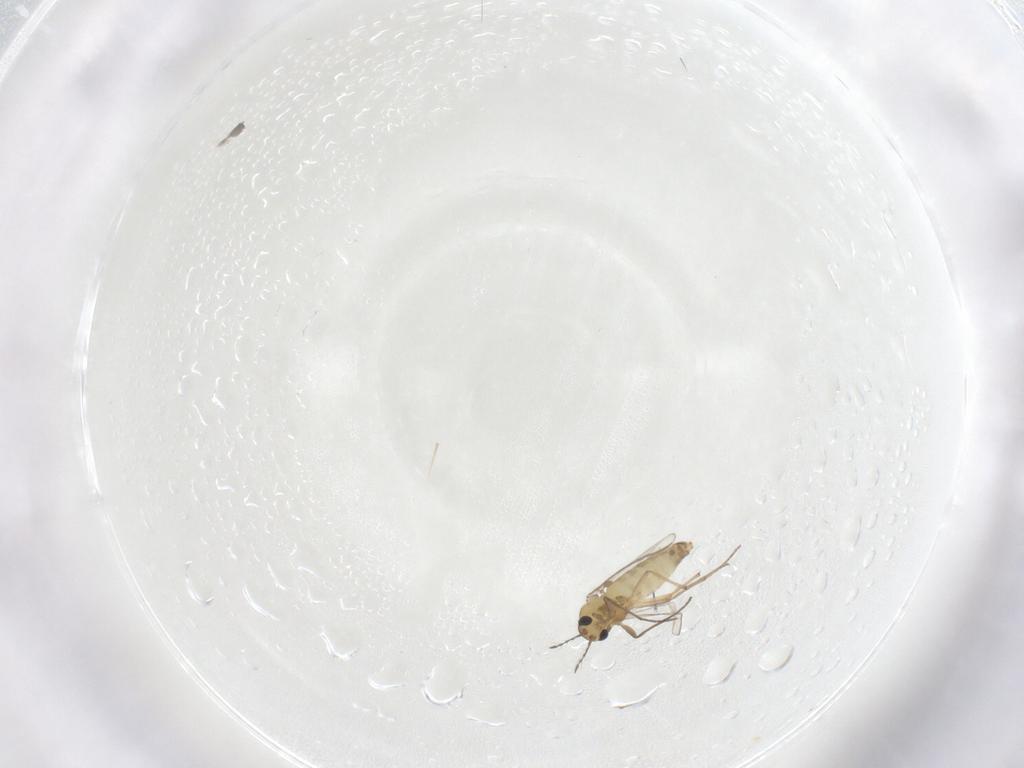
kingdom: Animalia
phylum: Arthropoda
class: Insecta
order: Diptera
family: Chironomidae
